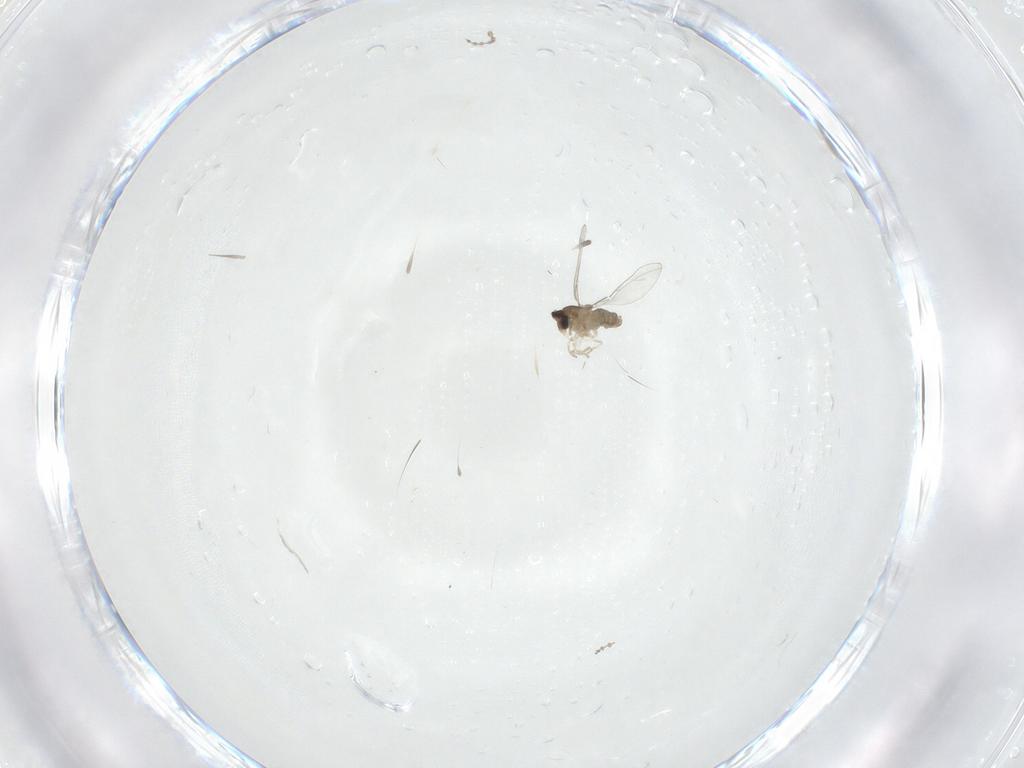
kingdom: Animalia
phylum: Arthropoda
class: Insecta
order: Diptera
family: Cecidomyiidae
